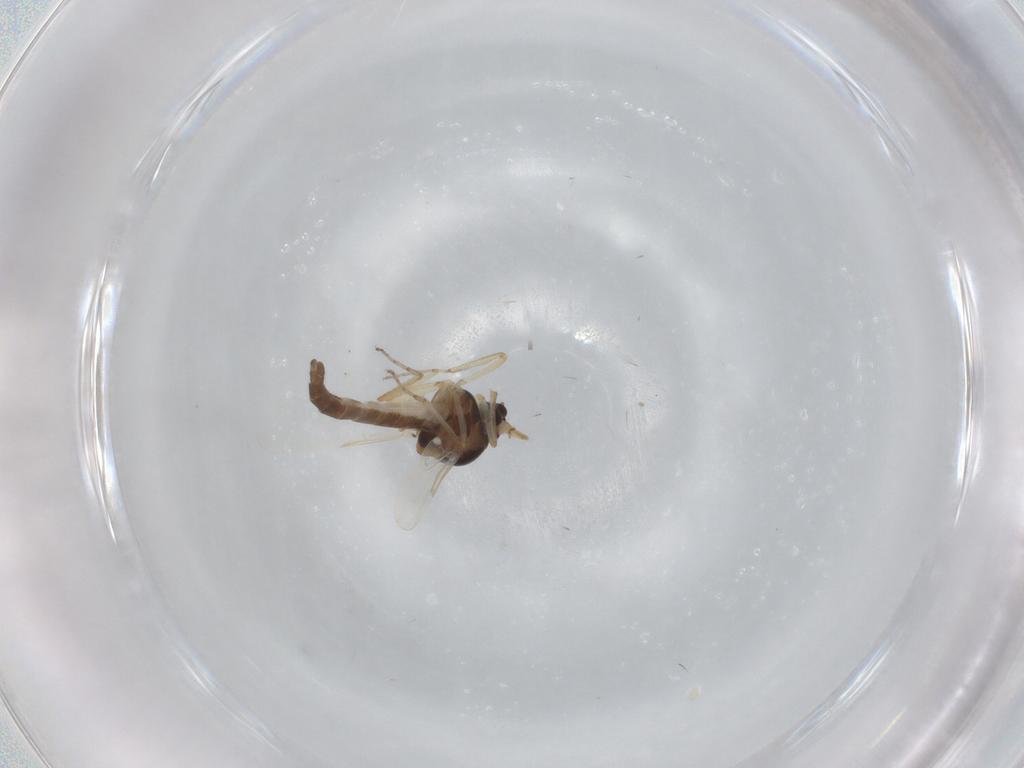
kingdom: Animalia
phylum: Arthropoda
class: Insecta
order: Diptera
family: Ceratopogonidae
